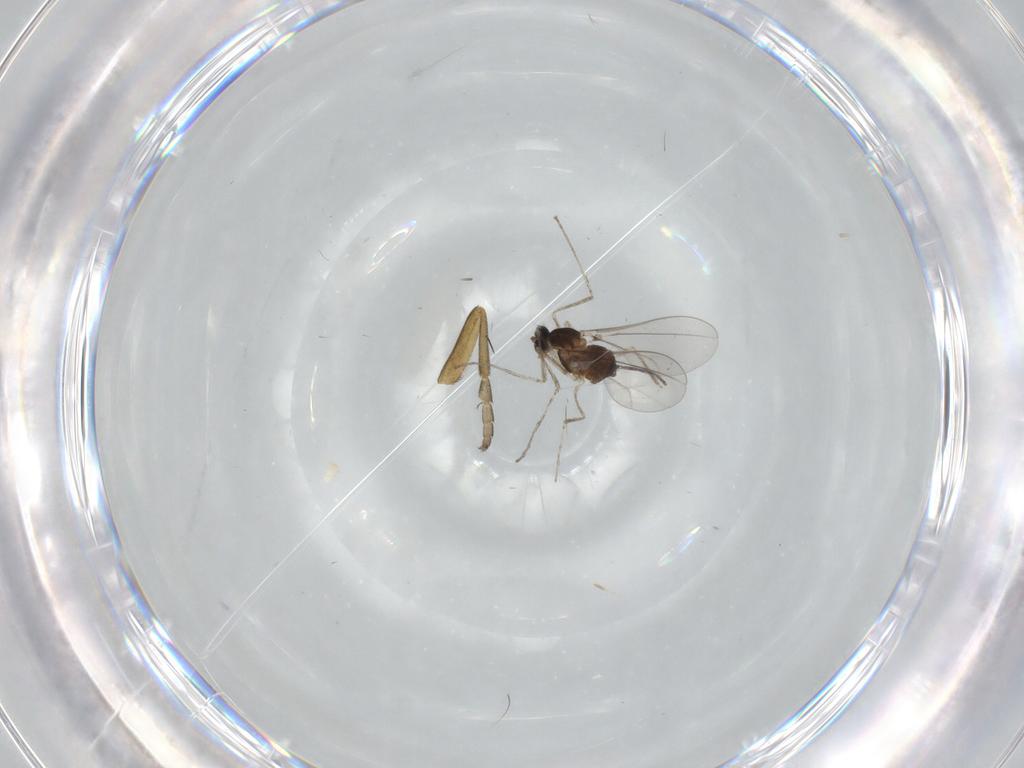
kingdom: Animalia
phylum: Arthropoda
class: Insecta
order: Diptera
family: Cecidomyiidae
